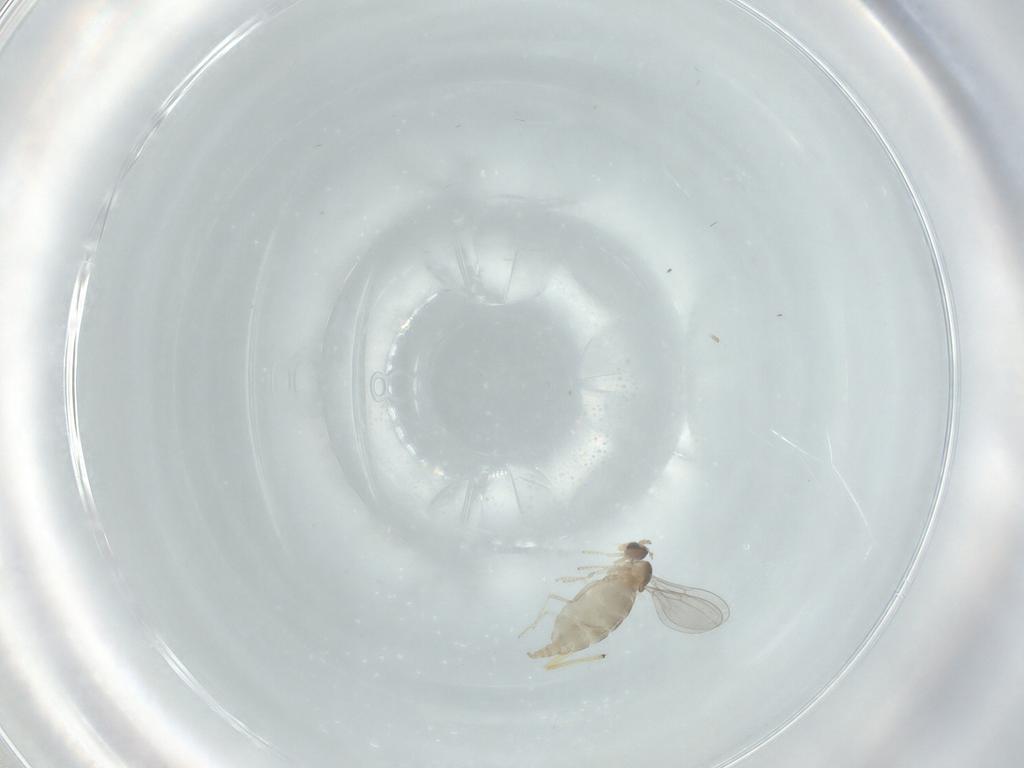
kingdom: Animalia
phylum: Arthropoda
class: Insecta
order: Diptera
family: Cecidomyiidae
